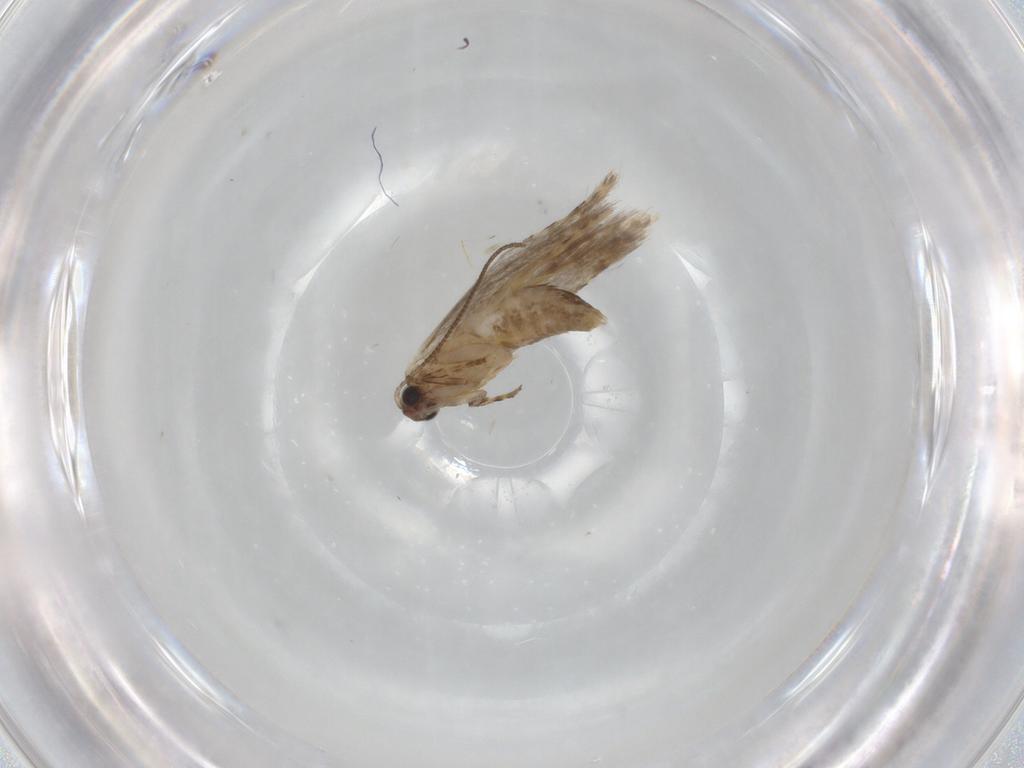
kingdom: Animalia
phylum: Arthropoda
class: Insecta
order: Lepidoptera
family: Tineidae
